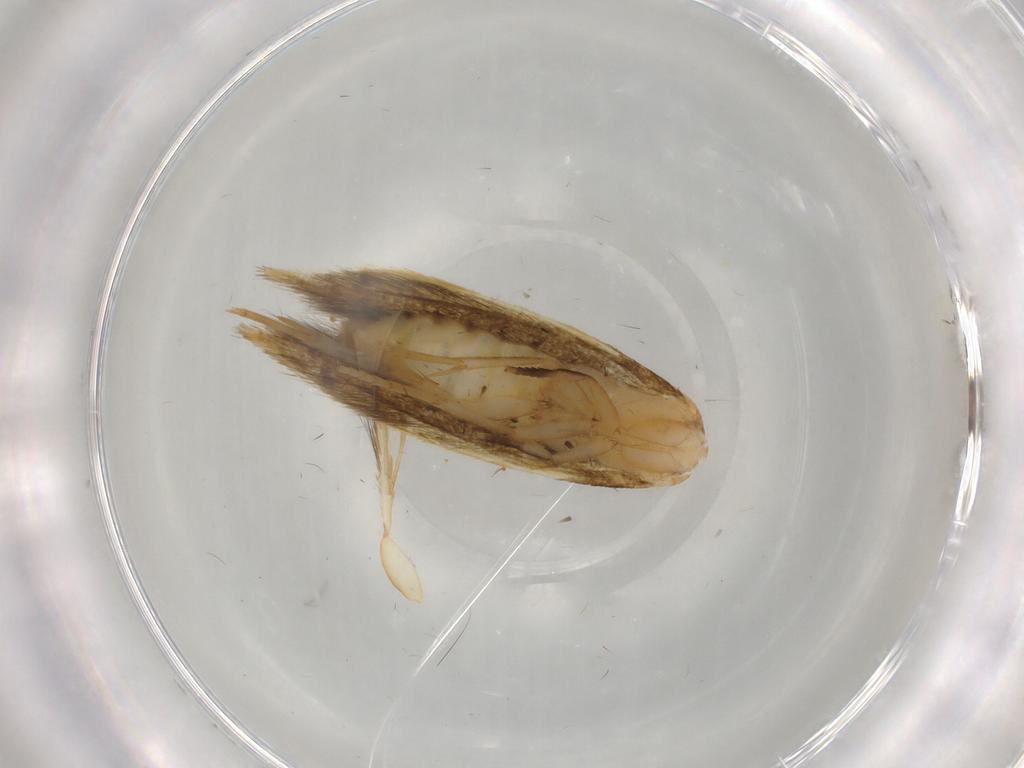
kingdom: Animalia
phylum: Arthropoda
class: Insecta
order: Lepidoptera
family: Tineidae
